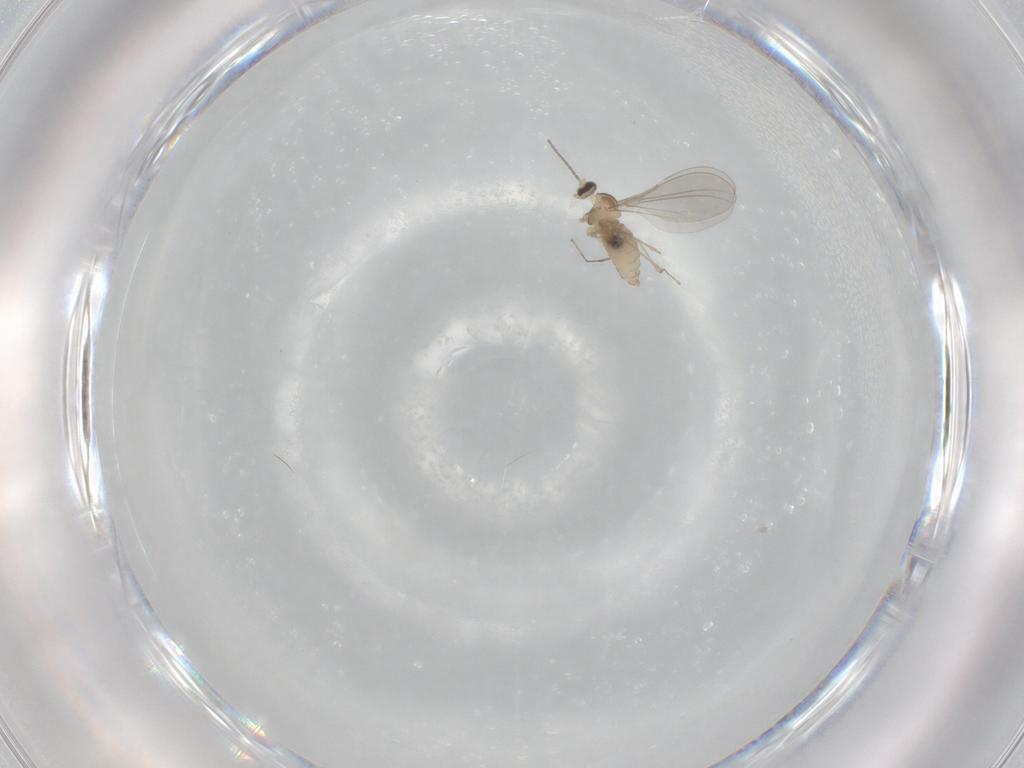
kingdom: Animalia
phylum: Arthropoda
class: Insecta
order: Diptera
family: Cecidomyiidae
